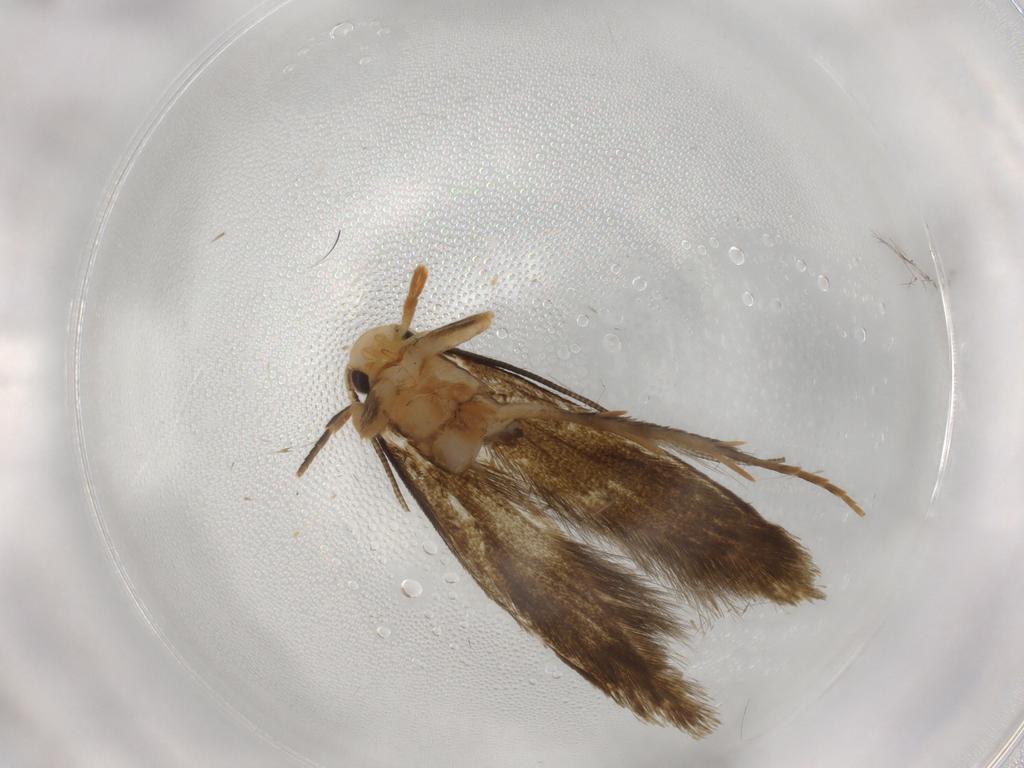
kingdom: Animalia
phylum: Arthropoda
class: Insecta
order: Lepidoptera
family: Tineidae
